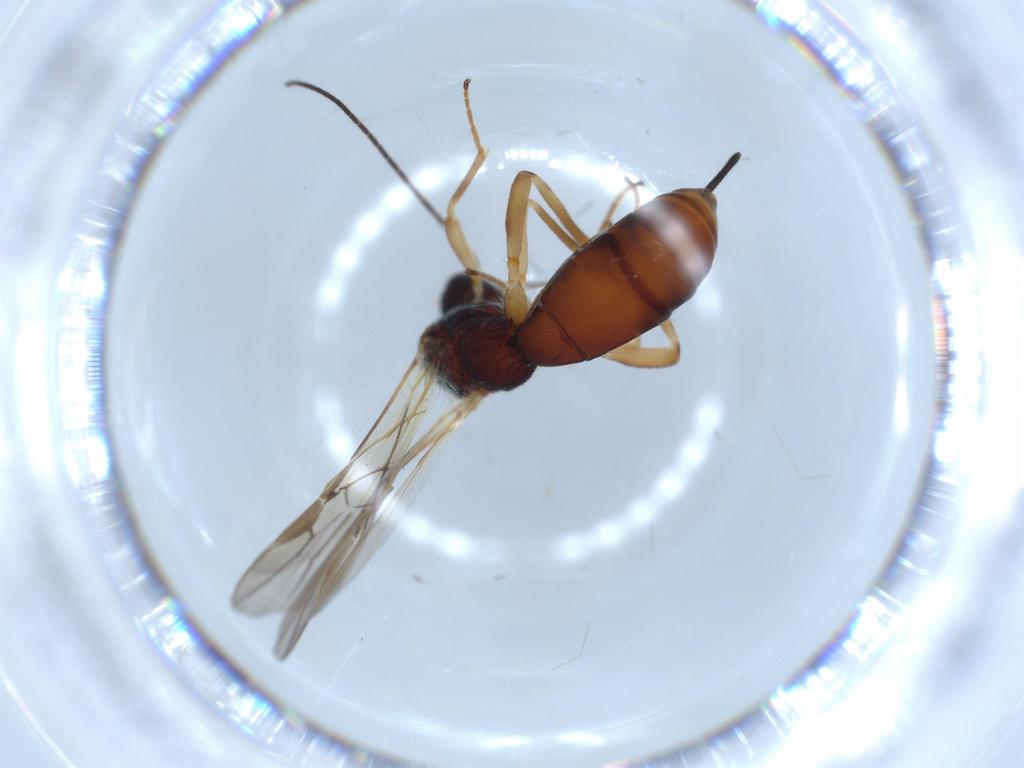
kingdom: Animalia
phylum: Arthropoda
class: Insecta
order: Hymenoptera
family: Braconidae
